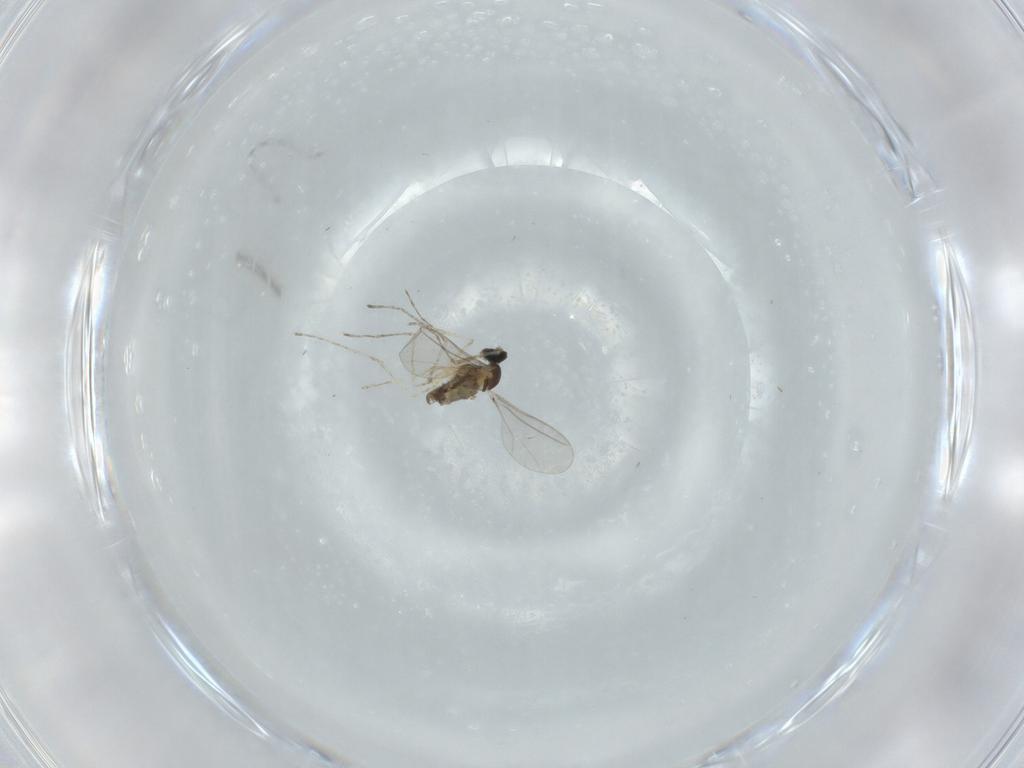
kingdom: Animalia
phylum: Arthropoda
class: Insecta
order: Diptera
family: Cecidomyiidae
